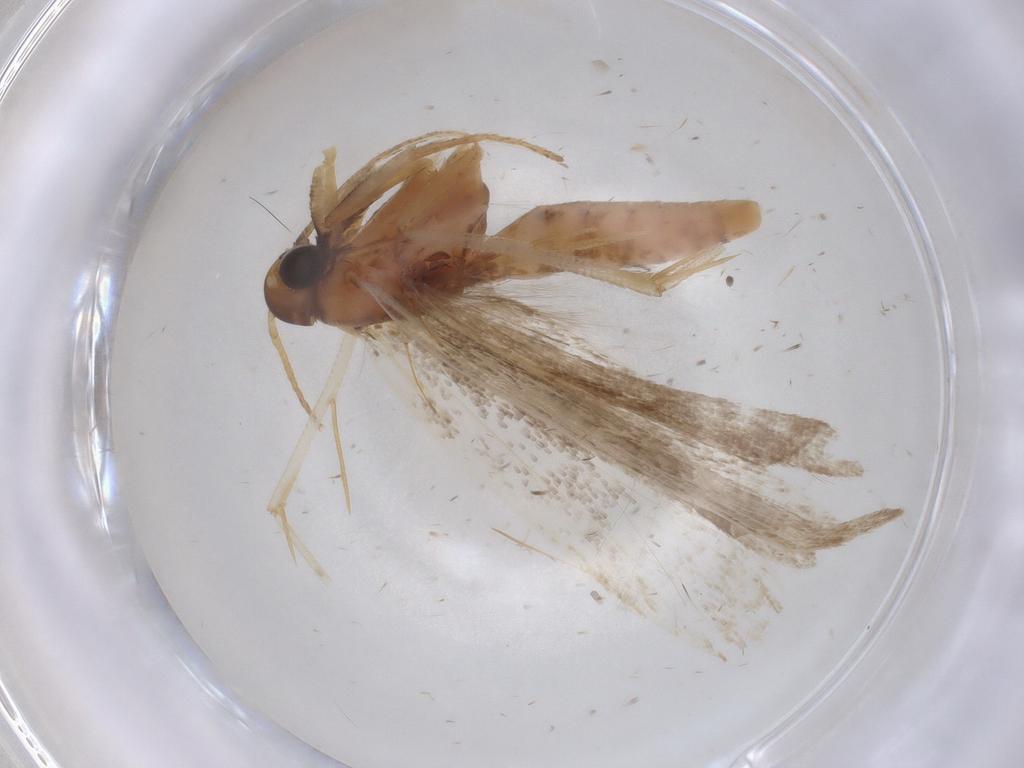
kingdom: Animalia
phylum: Arthropoda
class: Insecta
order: Lepidoptera
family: Gelechiidae
